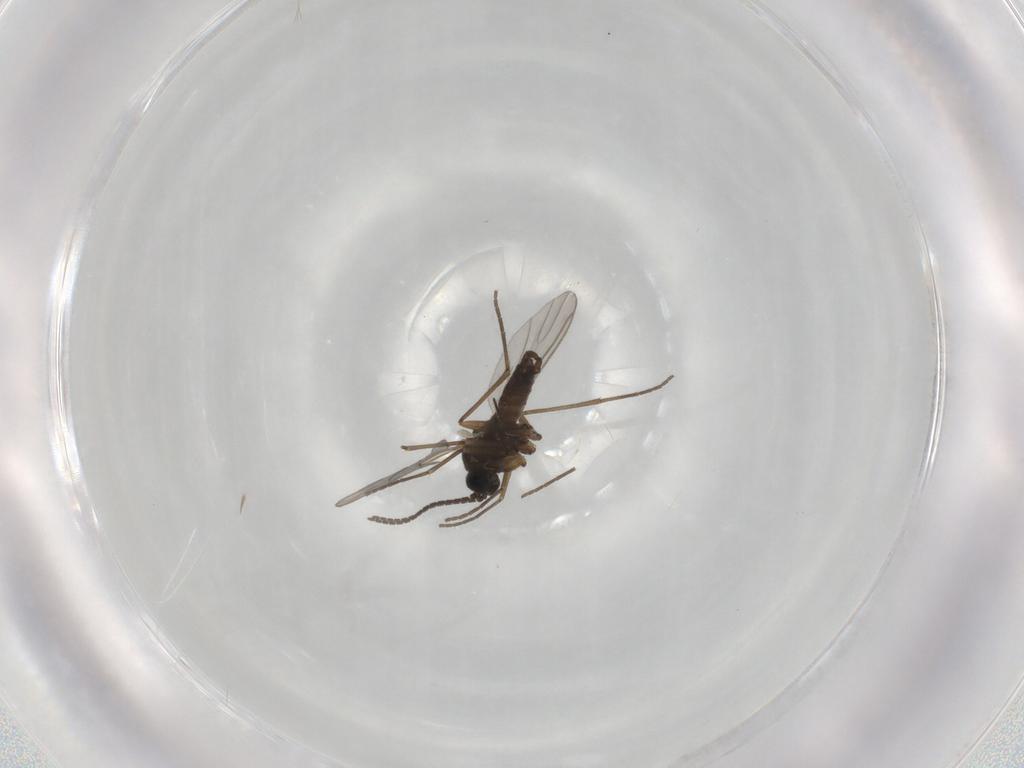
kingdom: Animalia
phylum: Arthropoda
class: Insecta
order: Diptera
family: Sciaridae
